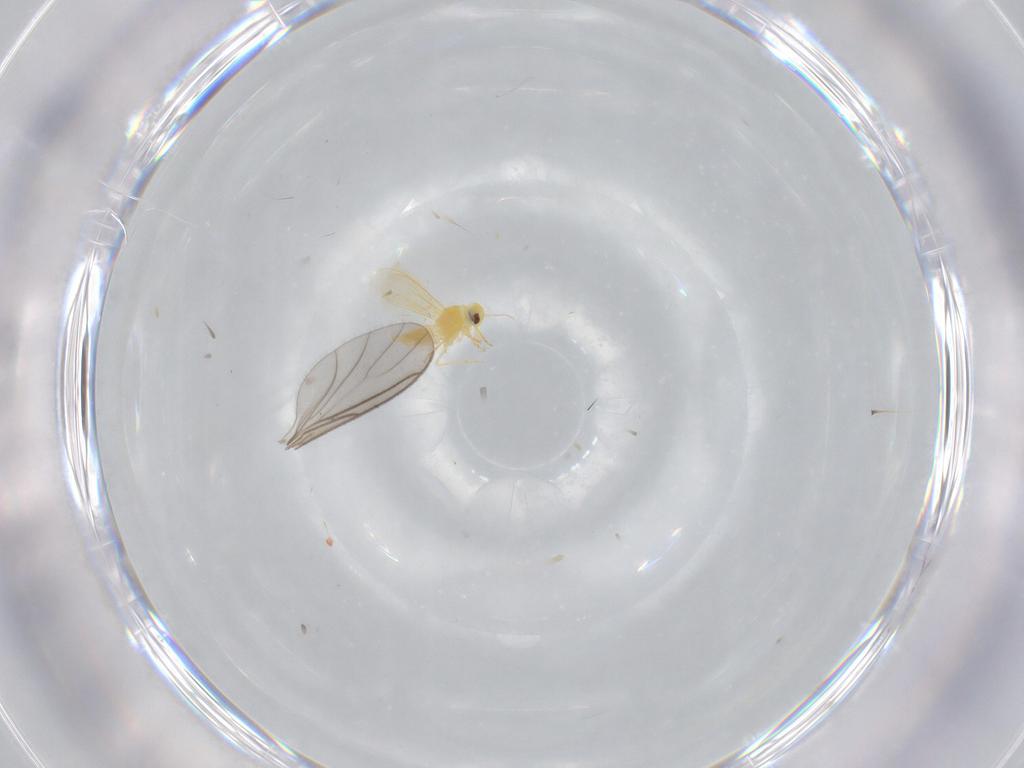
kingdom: Animalia
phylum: Arthropoda
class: Insecta
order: Hemiptera
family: Aleyrodidae
